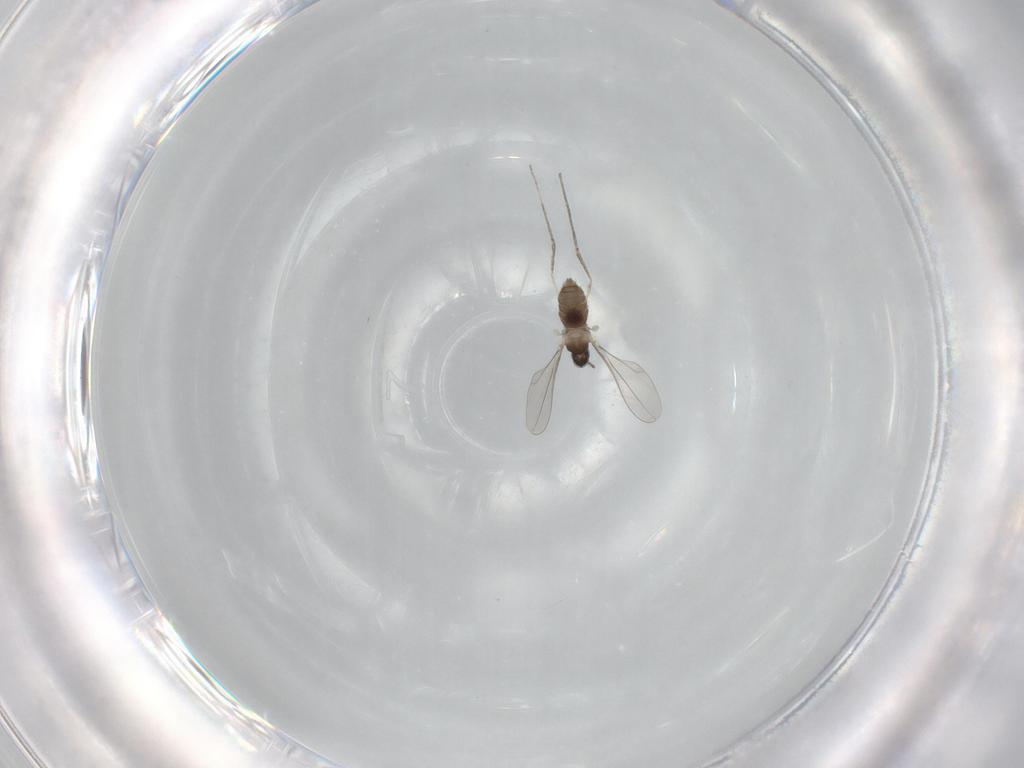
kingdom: Animalia
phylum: Arthropoda
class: Insecta
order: Diptera
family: Cecidomyiidae
